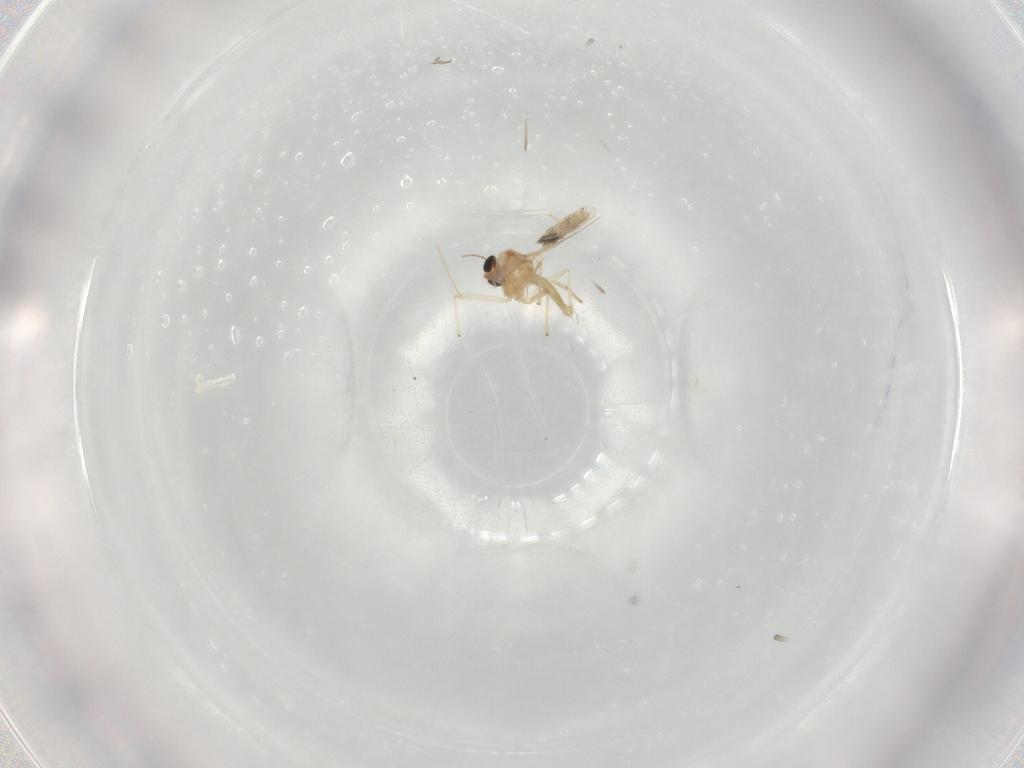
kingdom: Animalia
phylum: Arthropoda
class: Insecta
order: Diptera
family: Chironomidae
